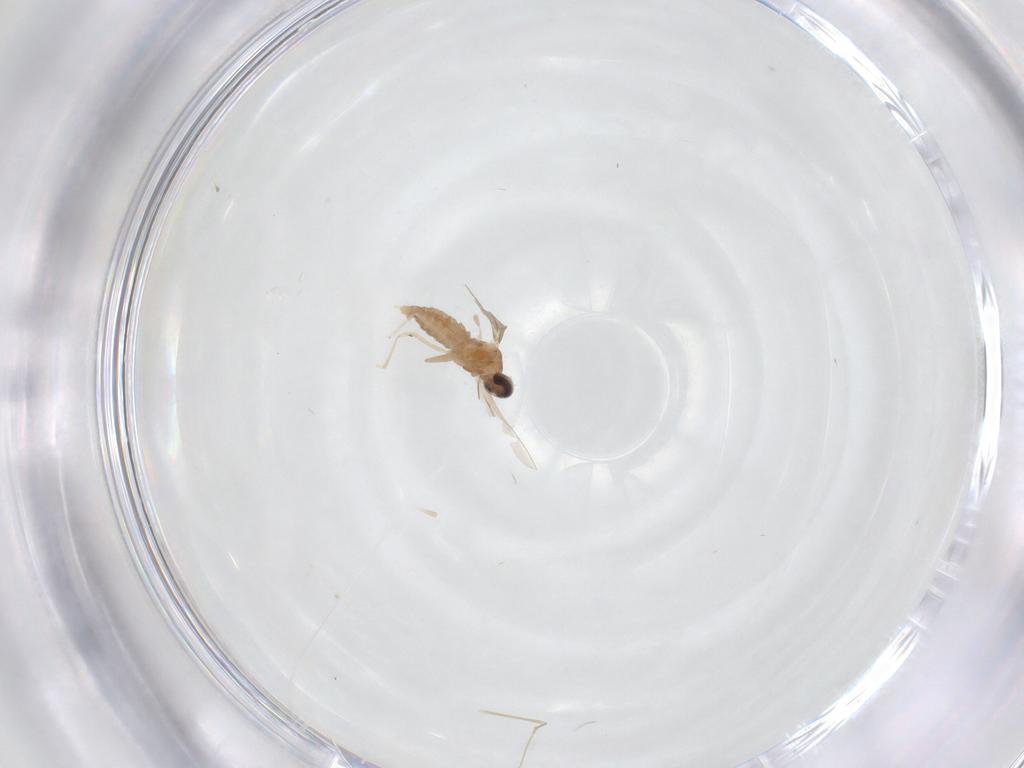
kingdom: Animalia
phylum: Arthropoda
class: Insecta
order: Diptera
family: Cecidomyiidae
